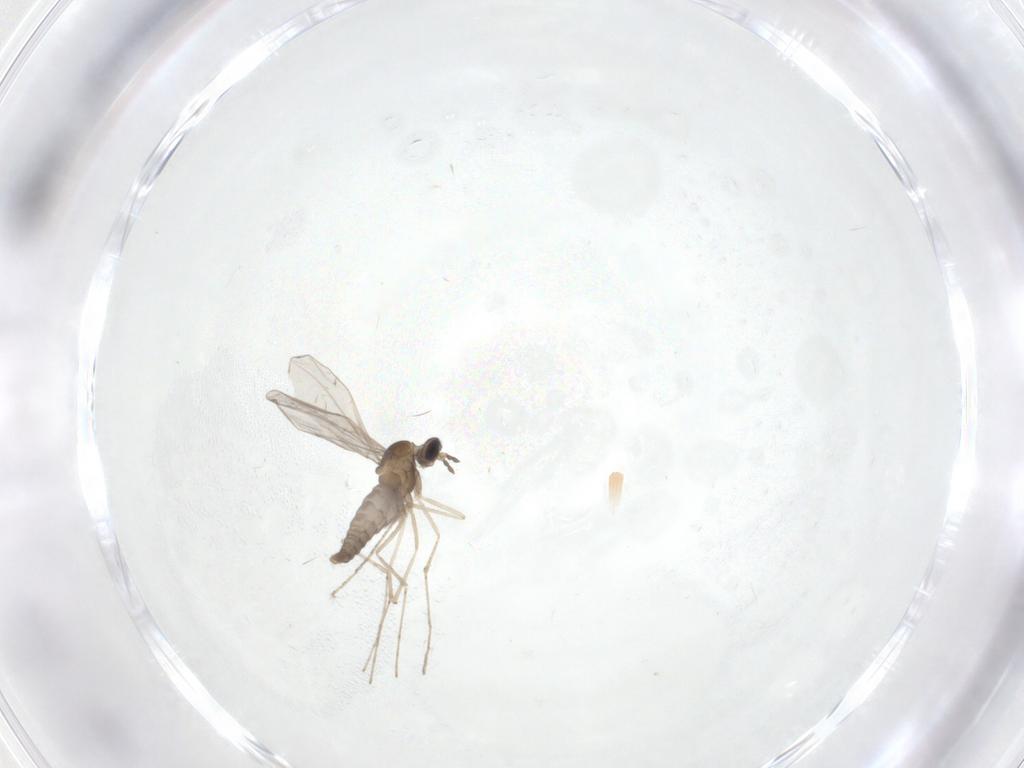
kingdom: Animalia
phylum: Arthropoda
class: Insecta
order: Diptera
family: Cecidomyiidae
